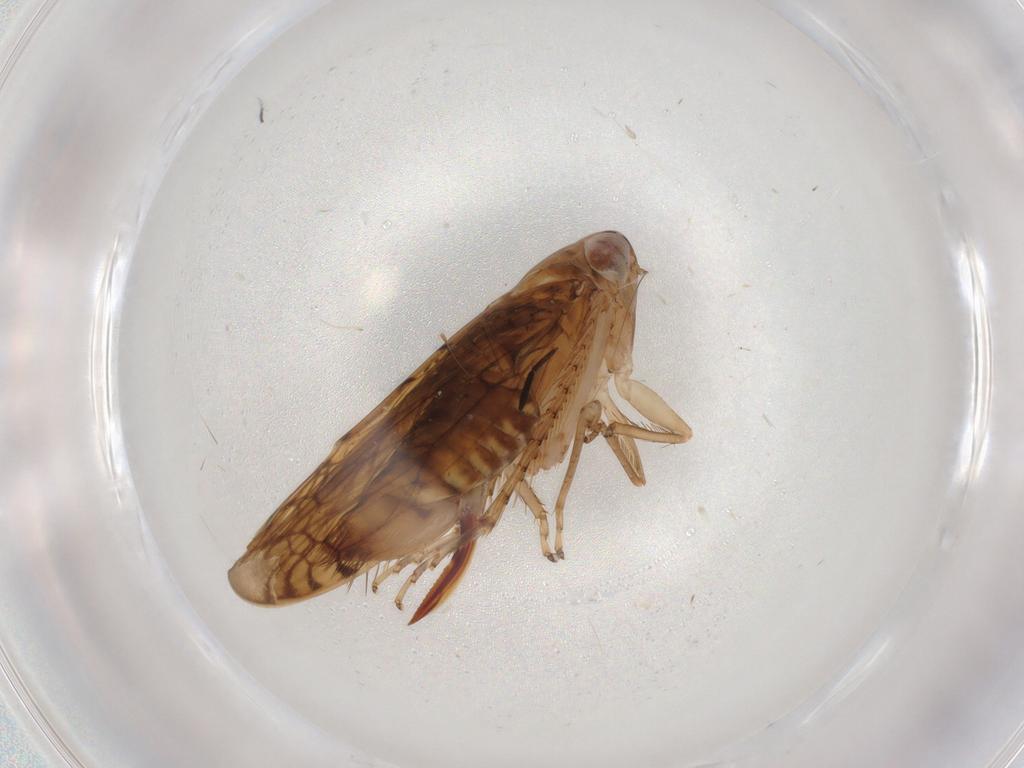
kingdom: Animalia
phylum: Arthropoda
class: Insecta
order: Hemiptera
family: Cicadellidae
